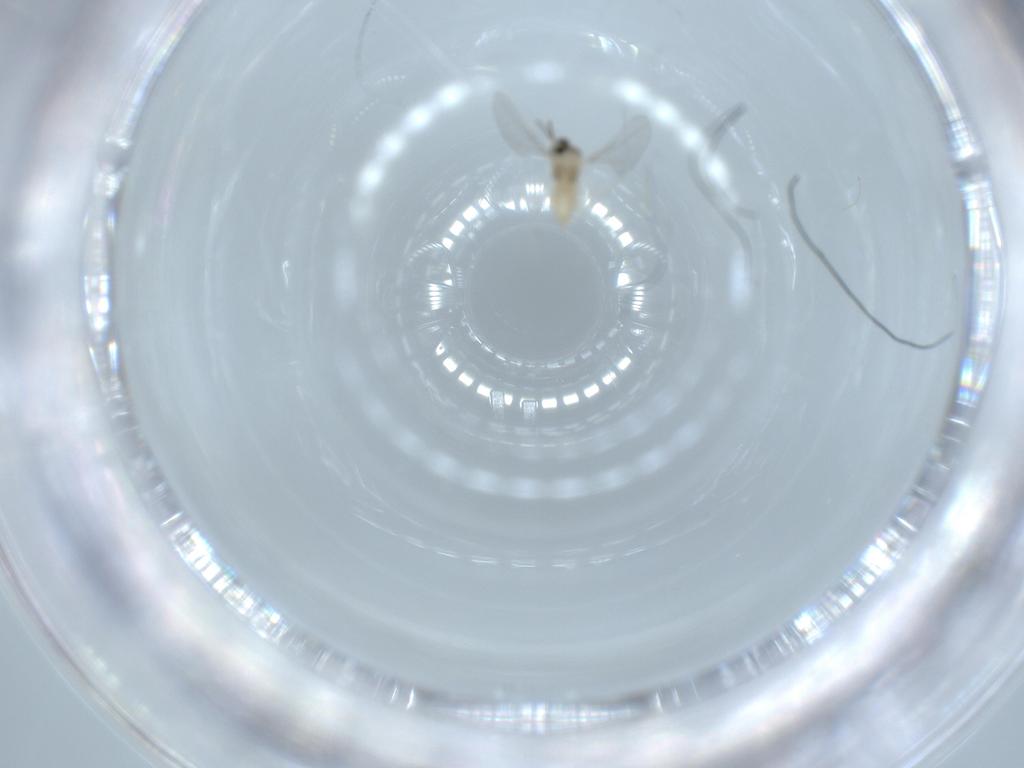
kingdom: Animalia
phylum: Arthropoda
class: Insecta
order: Diptera
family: Cecidomyiidae
